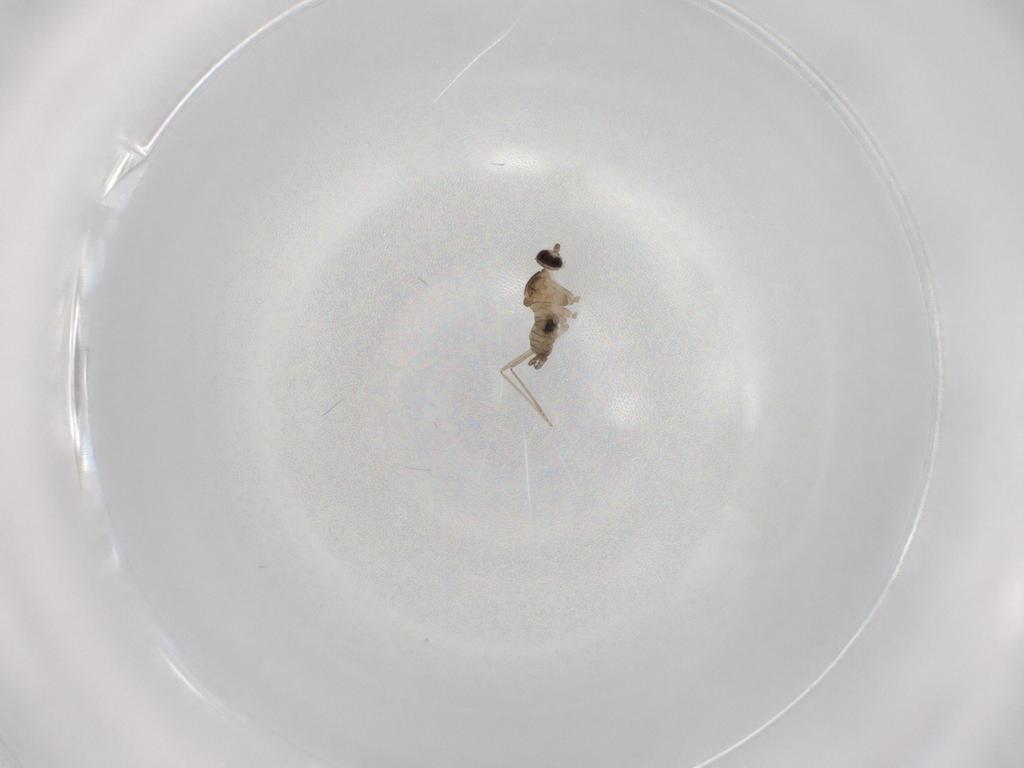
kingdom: Animalia
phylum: Arthropoda
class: Insecta
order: Diptera
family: Cecidomyiidae
